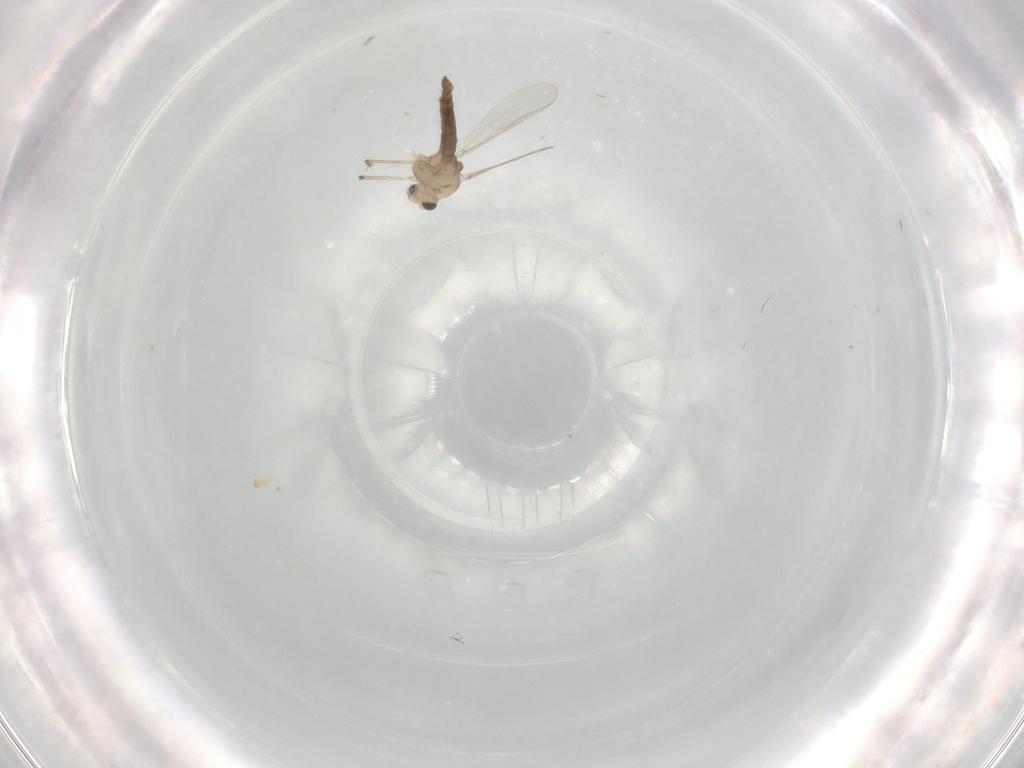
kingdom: Animalia
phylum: Arthropoda
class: Insecta
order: Diptera
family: Chironomidae
